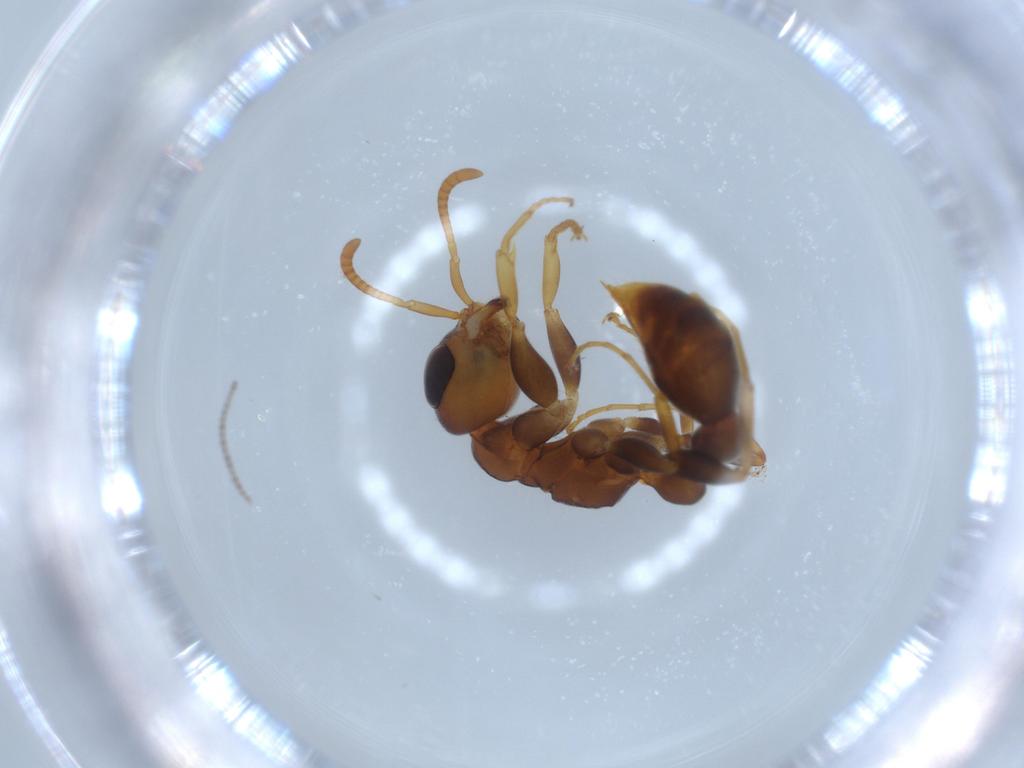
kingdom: Animalia
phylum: Arthropoda
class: Insecta
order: Hymenoptera
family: Formicidae
